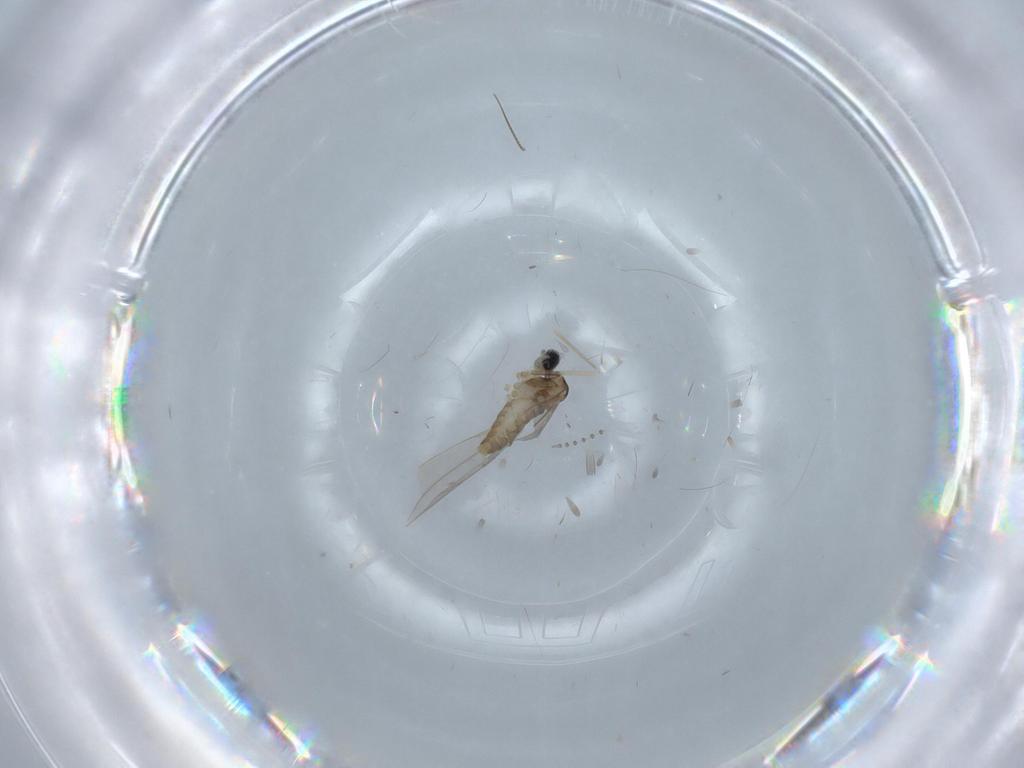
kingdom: Animalia
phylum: Arthropoda
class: Insecta
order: Diptera
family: Cecidomyiidae
